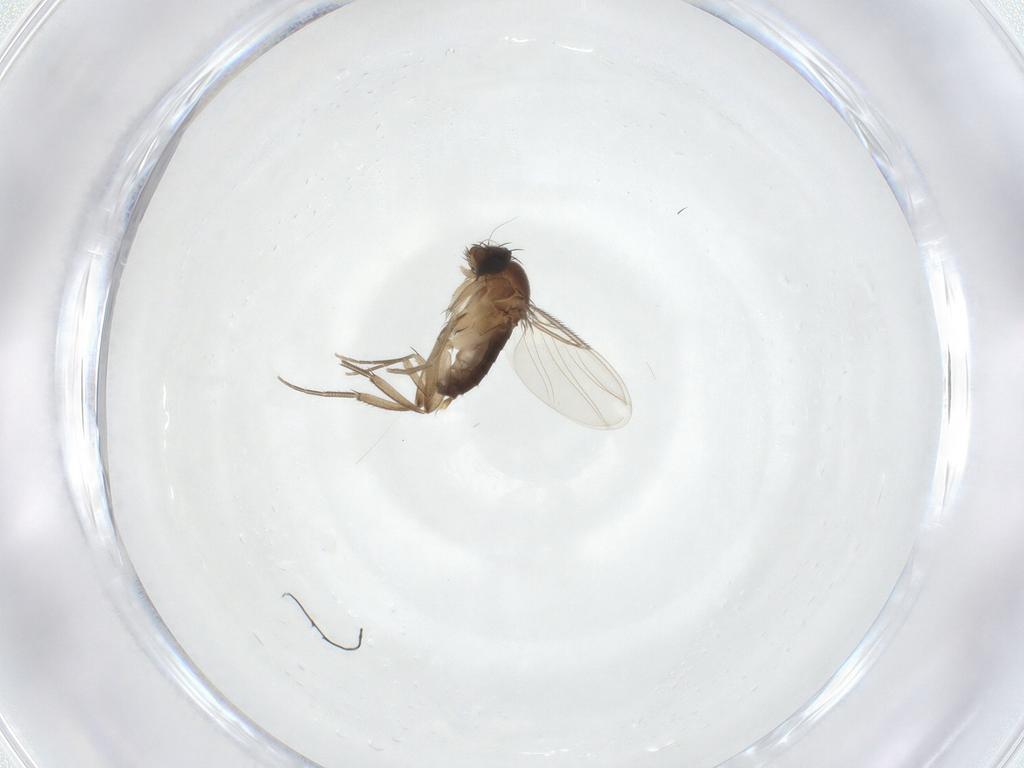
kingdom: Animalia
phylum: Arthropoda
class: Insecta
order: Diptera
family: Phoridae
